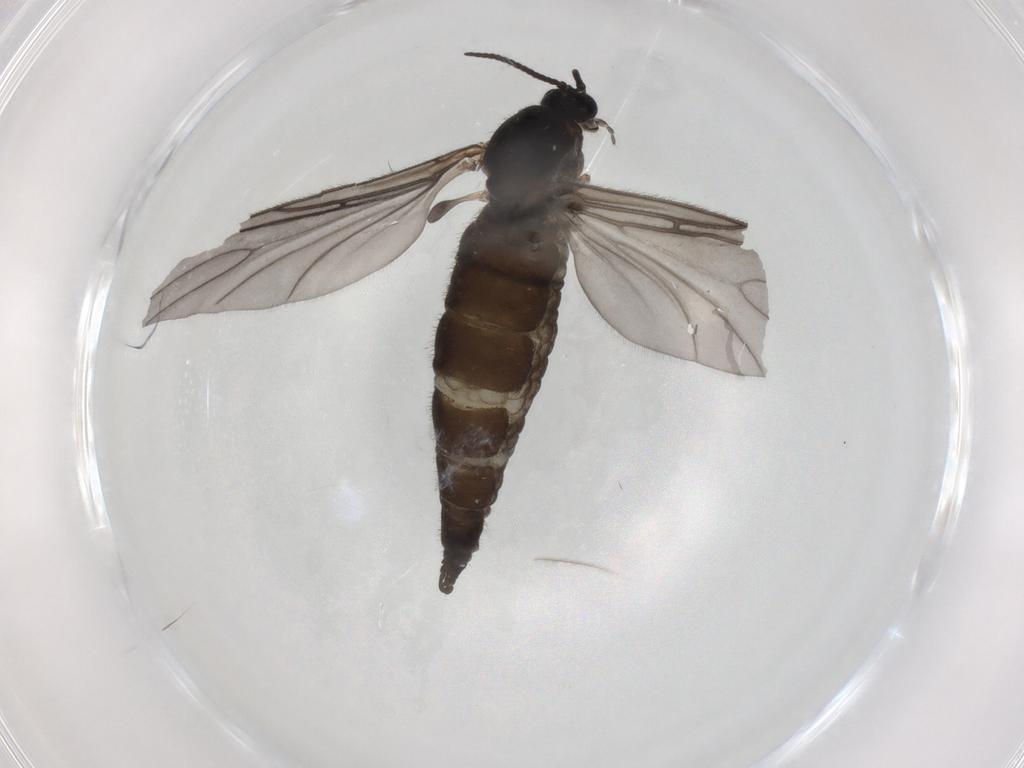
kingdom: Animalia
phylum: Arthropoda
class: Insecta
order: Diptera
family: Sciaridae
